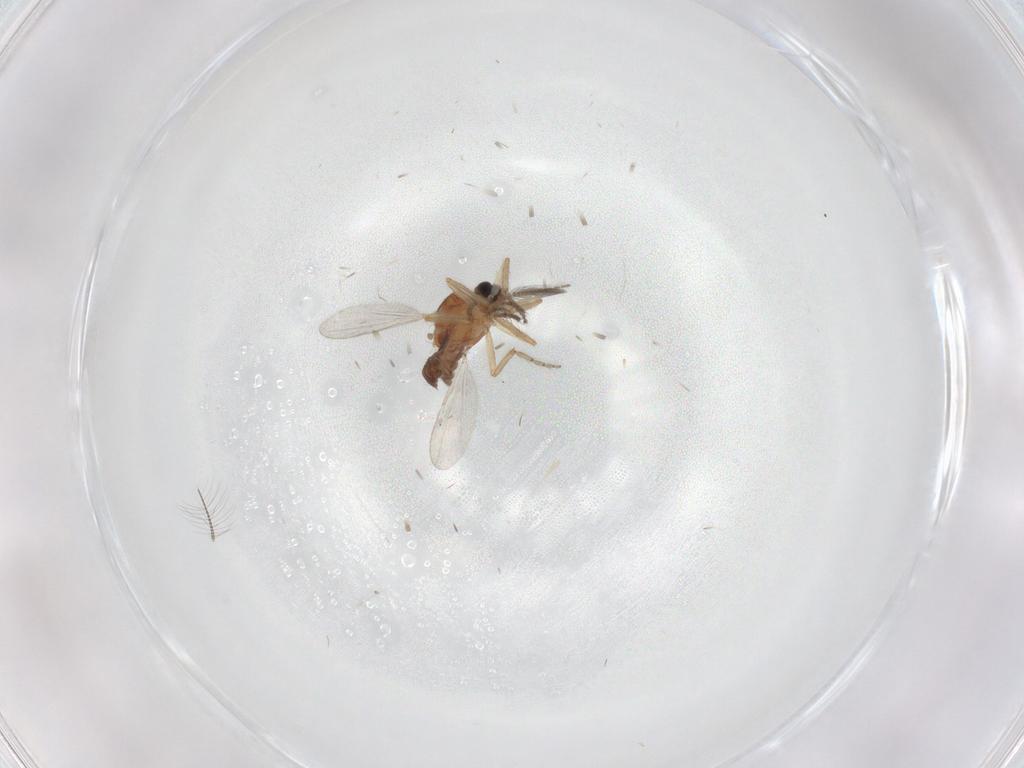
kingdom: Animalia
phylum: Arthropoda
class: Insecta
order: Diptera
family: Ceratopogonidae
